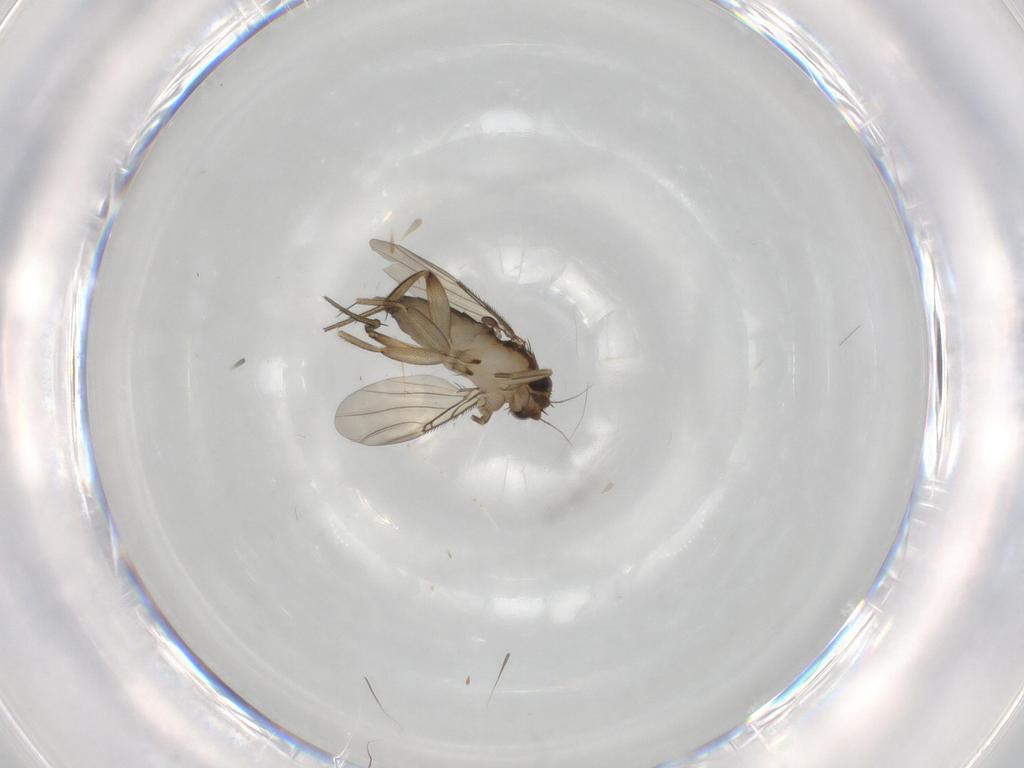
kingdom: Animalia
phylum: Arthropoda
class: Insecta
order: Diptera
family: Phoridae
